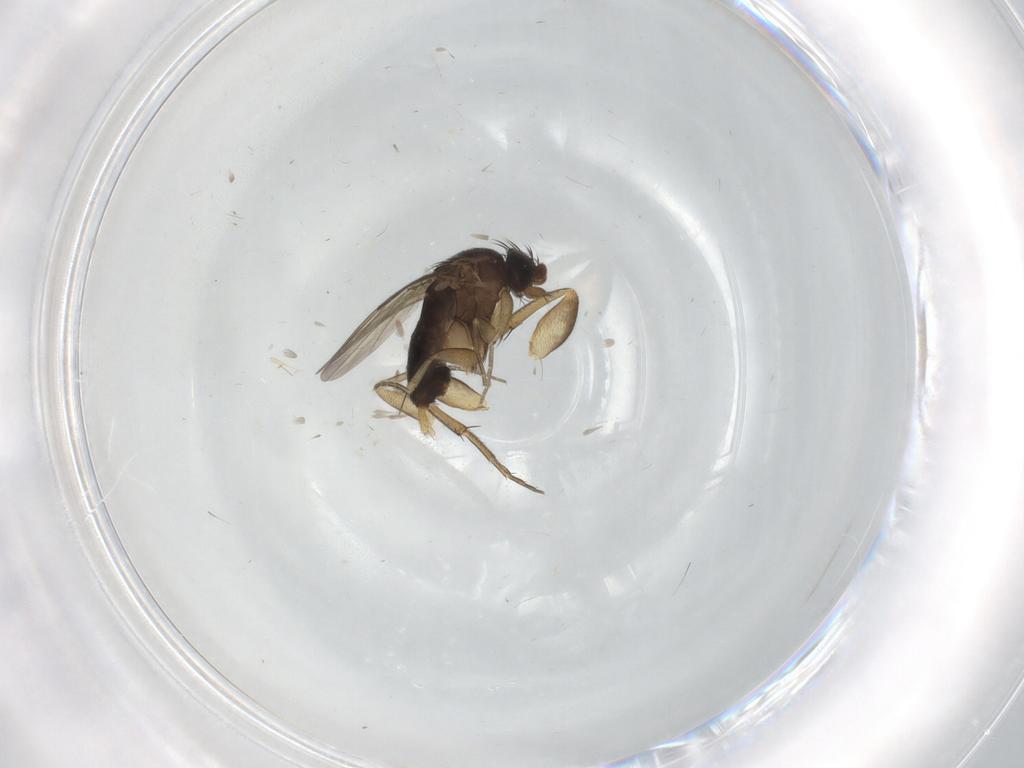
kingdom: Animalia
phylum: Arthropoda
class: Insecta
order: Diptera
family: Phoridae
